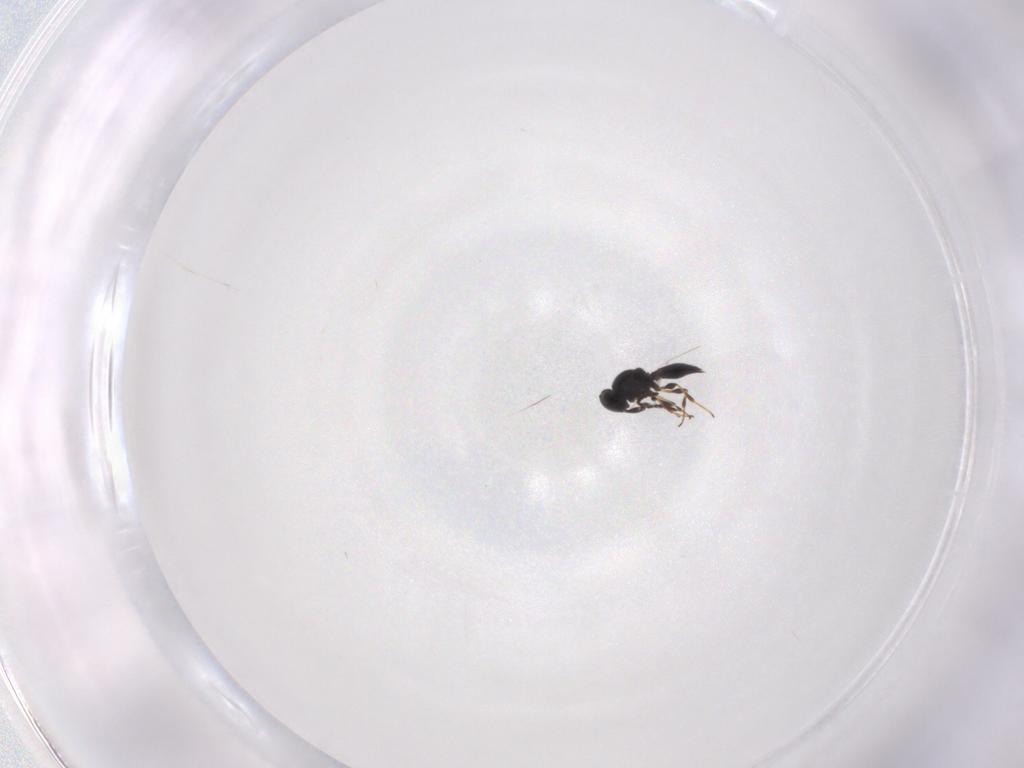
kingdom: Animalia
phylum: Arthropoda
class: Insecta
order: Hymenoptera
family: Platygastridae
